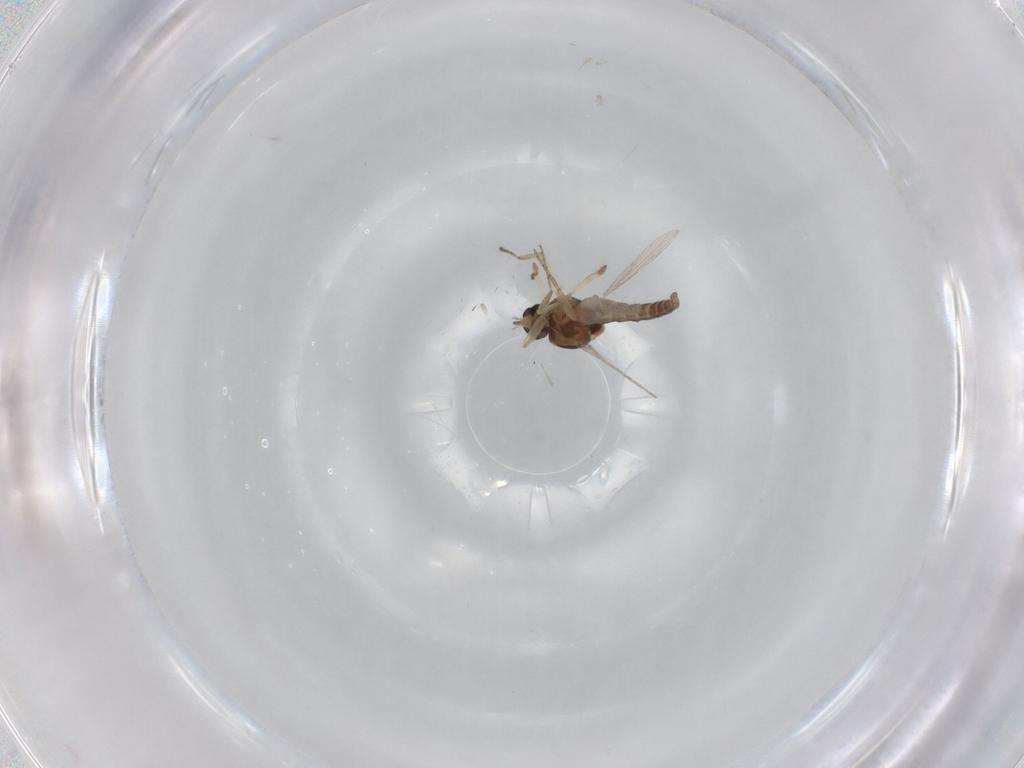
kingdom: Animalia
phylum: Arthropoda
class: Insecta
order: Diptera
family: Ceratopogonidae
